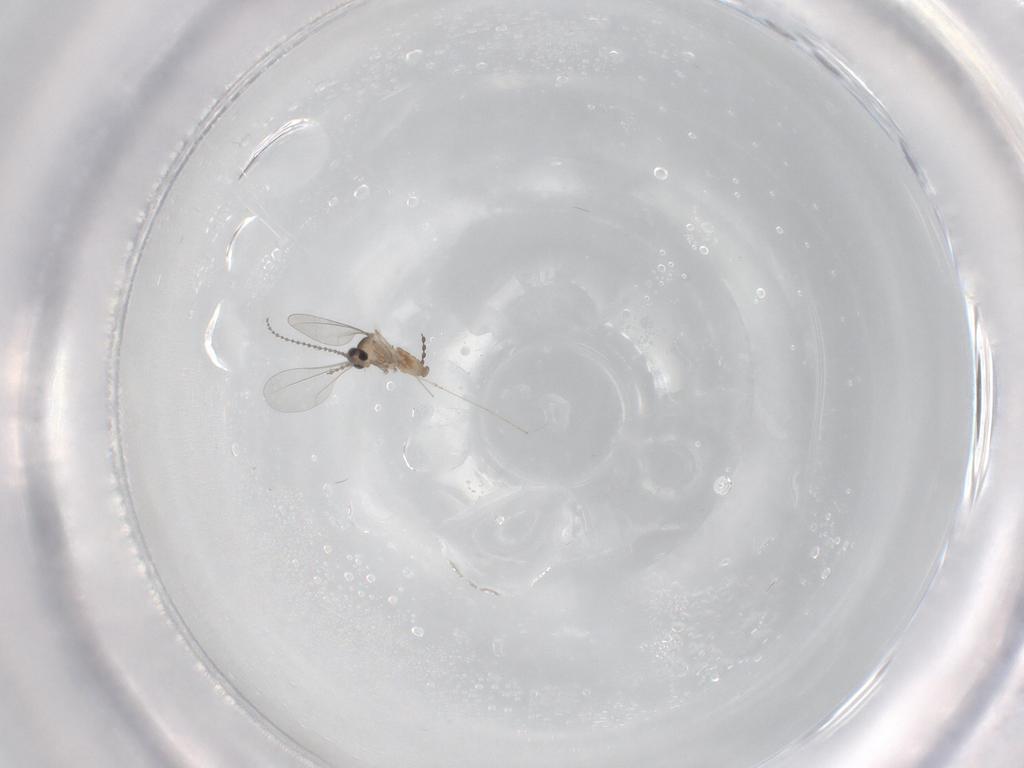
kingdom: Animalia
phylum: Arthropoda
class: Insecta
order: Diptera
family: Cecidomyiidae
